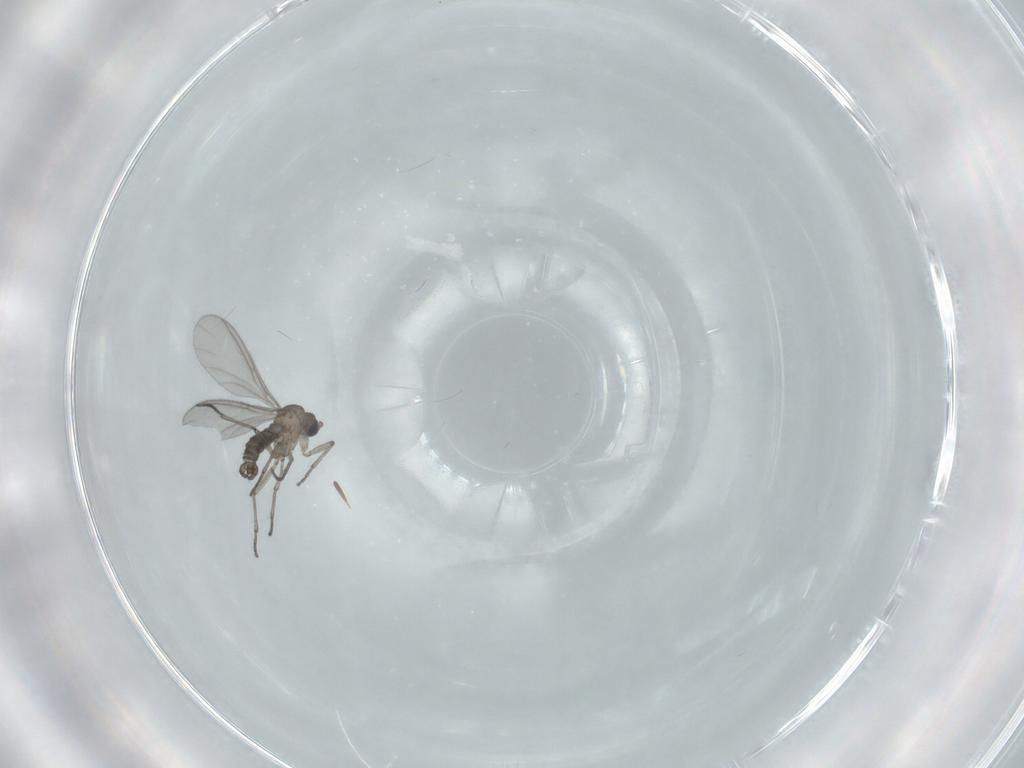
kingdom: Animalia
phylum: Arthropoda
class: Insecta
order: Diptera
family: Sciaridae
